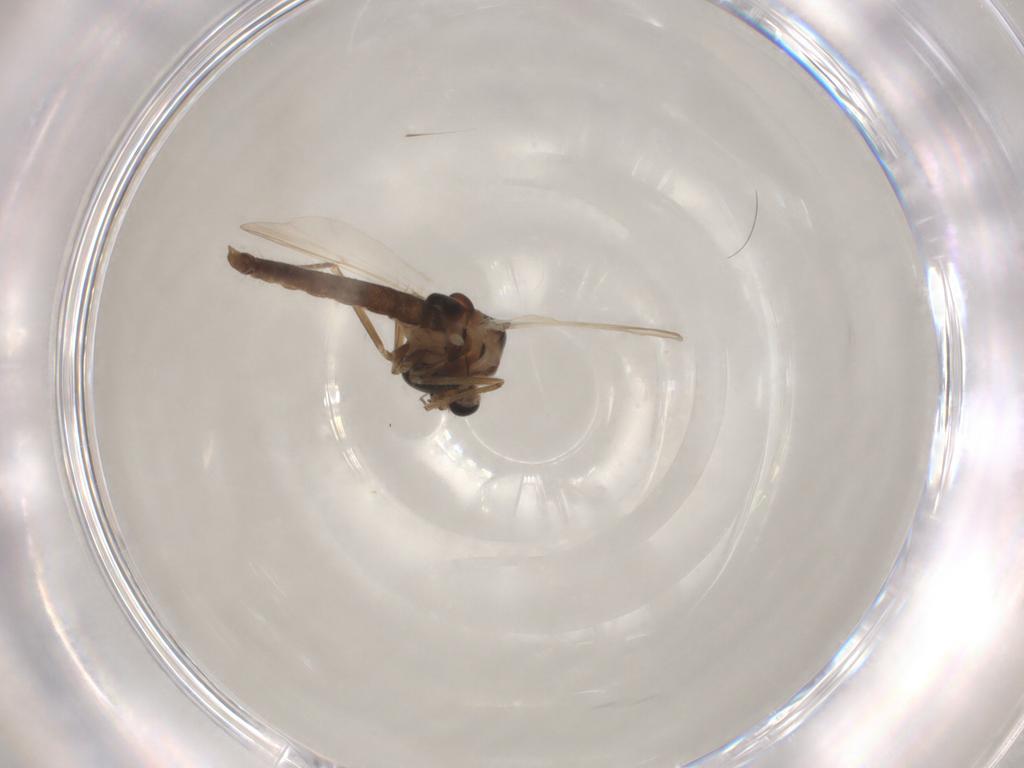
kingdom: Animalia
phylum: Arthropoda
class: Insecta
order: Diptera
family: Chironomidae
